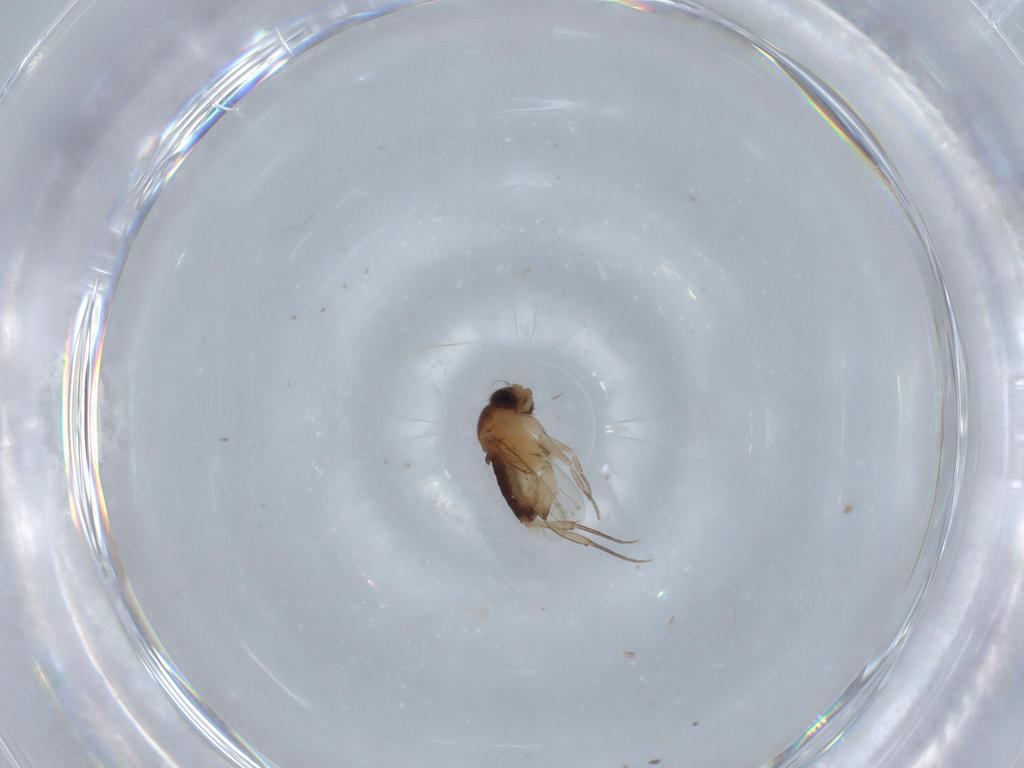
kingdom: Animalia
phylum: Arthropoda
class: Insecta
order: Diptera
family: Phoridae
